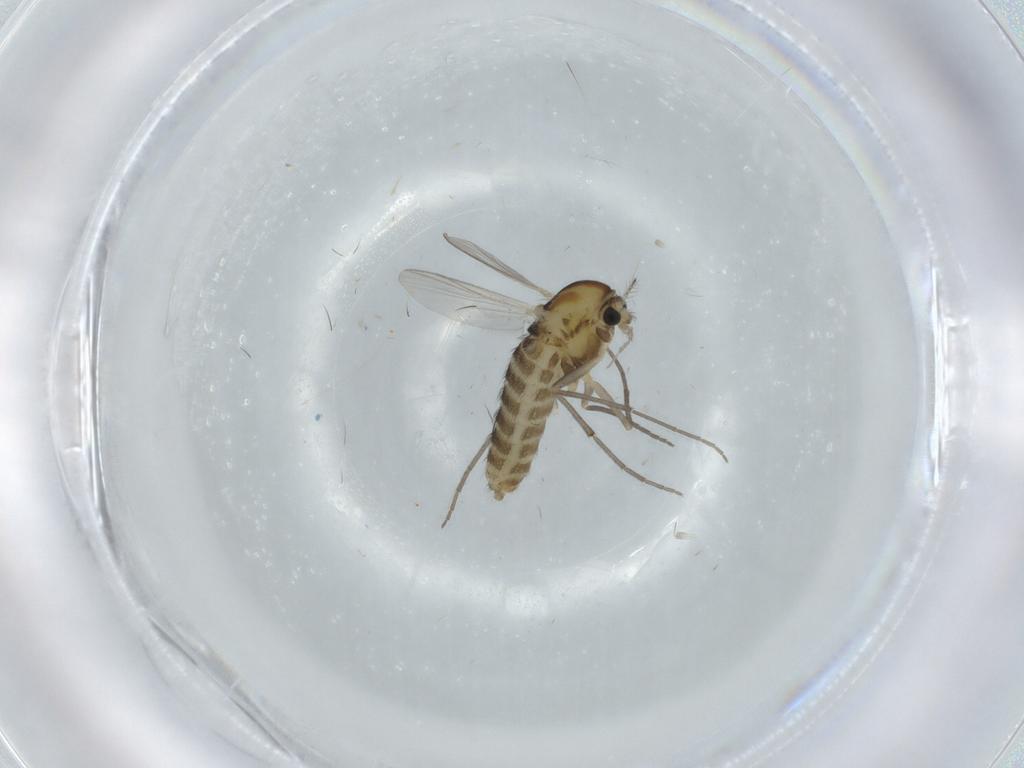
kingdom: Animalia
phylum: Arthropoda
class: Insecta
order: Diptera
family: Chironomidae
